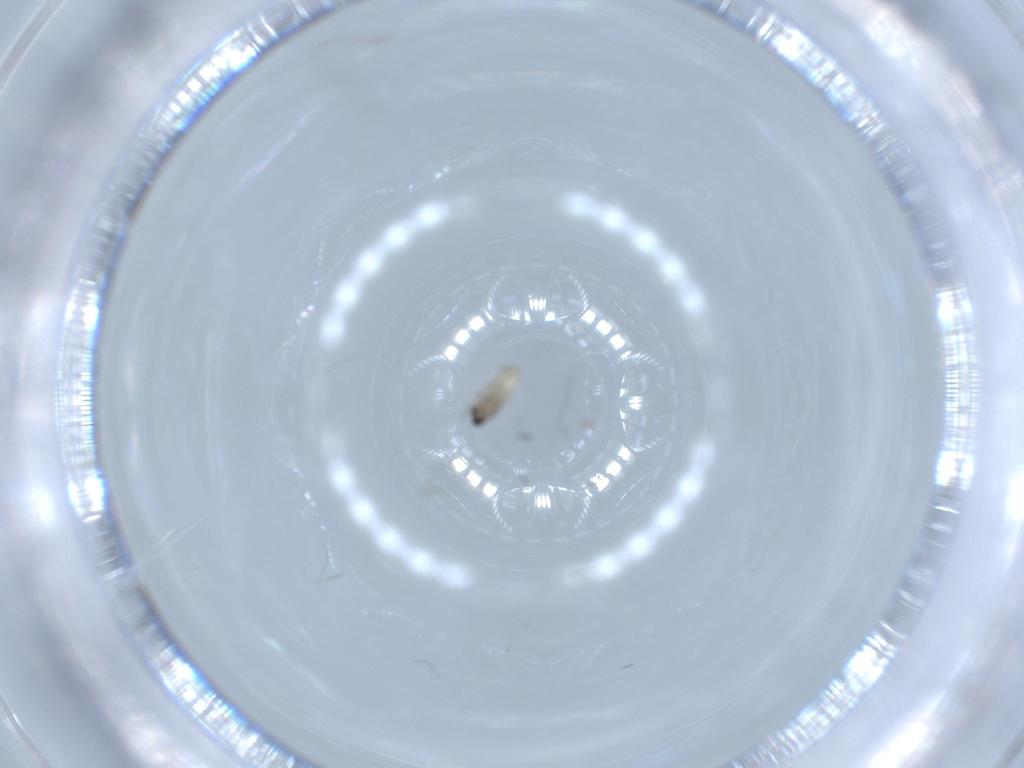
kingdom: Animalia
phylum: Arthropoda
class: Insecta
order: Diptera
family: Cecidomyiidae
